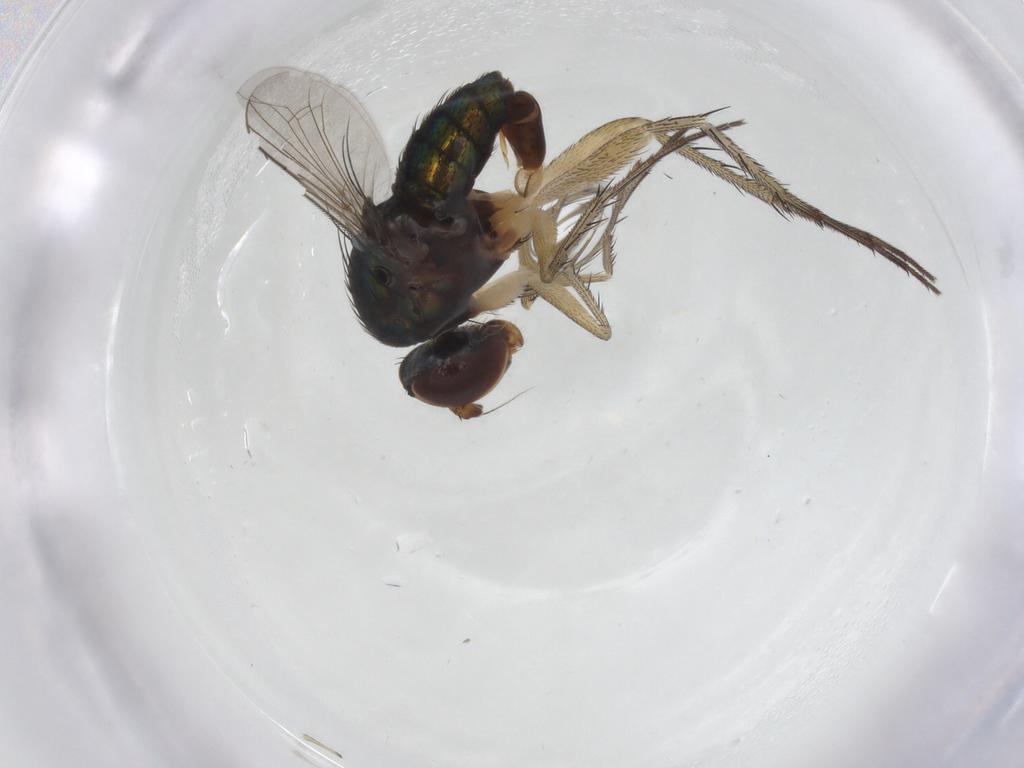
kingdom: Animalia
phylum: Arthropoda
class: Insecta
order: Diptera
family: Dolichopodidae
